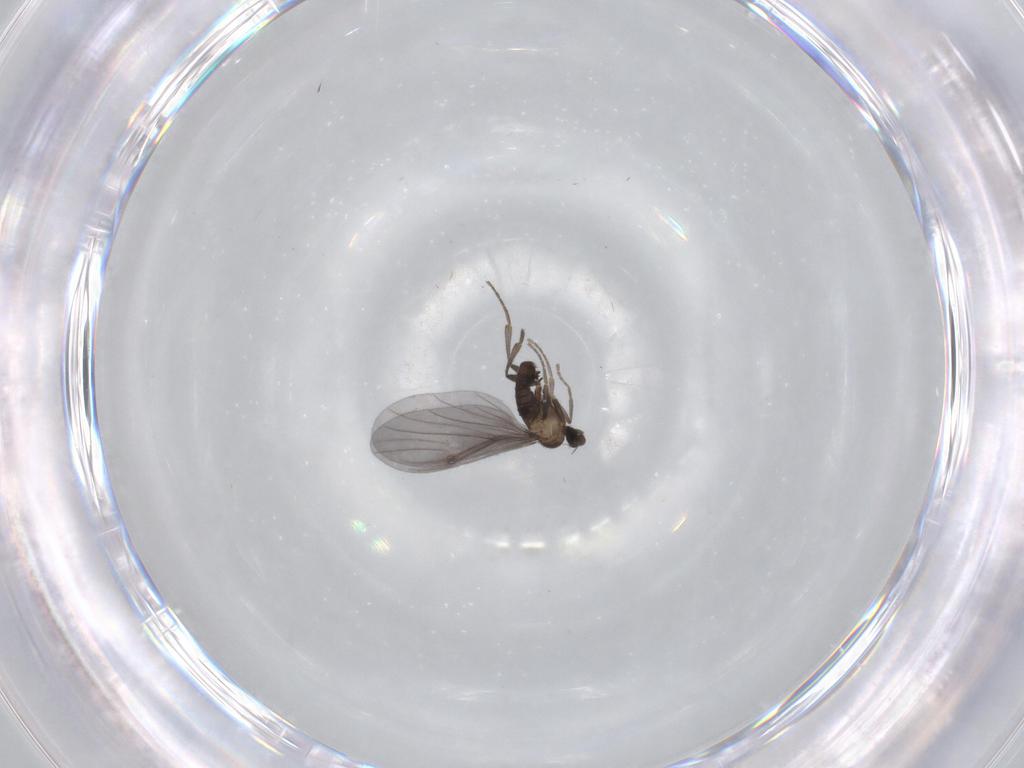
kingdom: Animalia
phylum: Arthropoda
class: Insecta
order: Diptera
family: Phoridae
